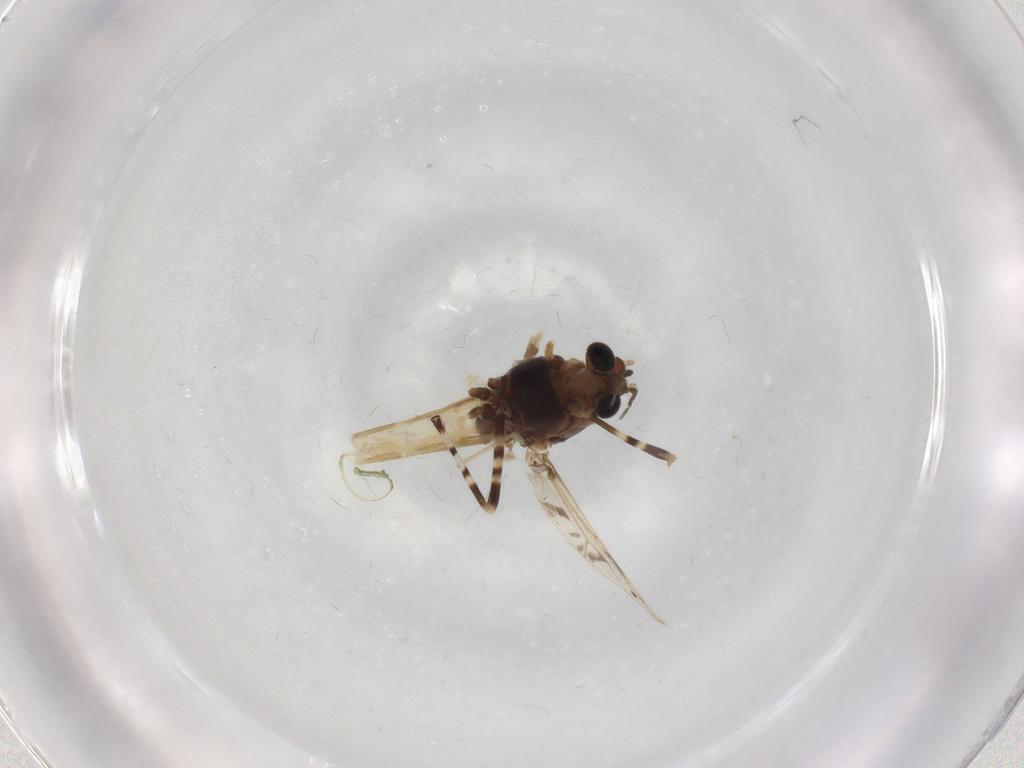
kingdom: Animalia
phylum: Arthropoda
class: Insecta
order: Diptera
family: Chironomidae
